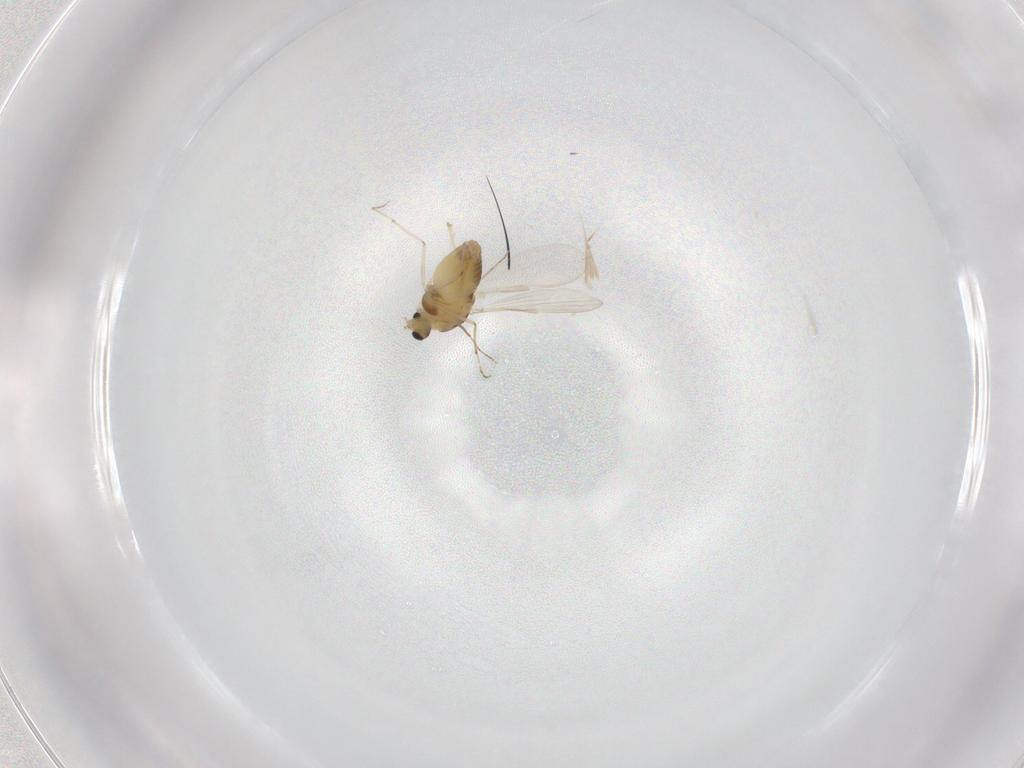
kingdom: Animalia
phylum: Arthropoda
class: Insecta
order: Diptera
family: Chironomidae
